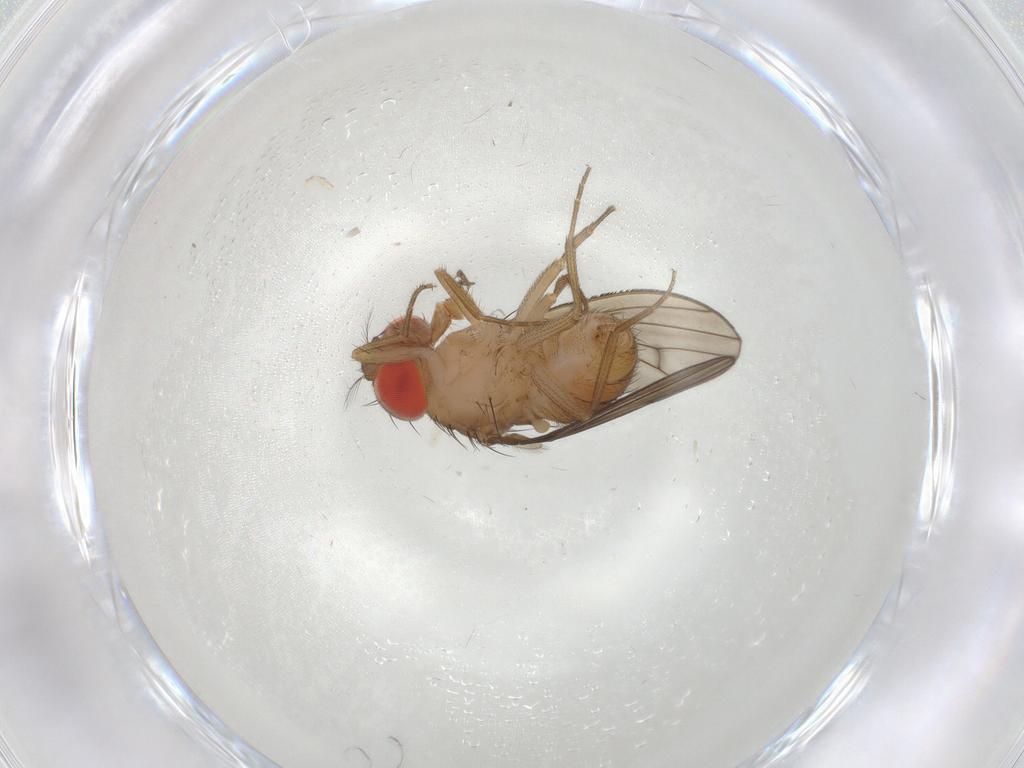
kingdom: Animalia
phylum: Arthropoda
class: Insecta
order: Diptera
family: Drosophilidae
